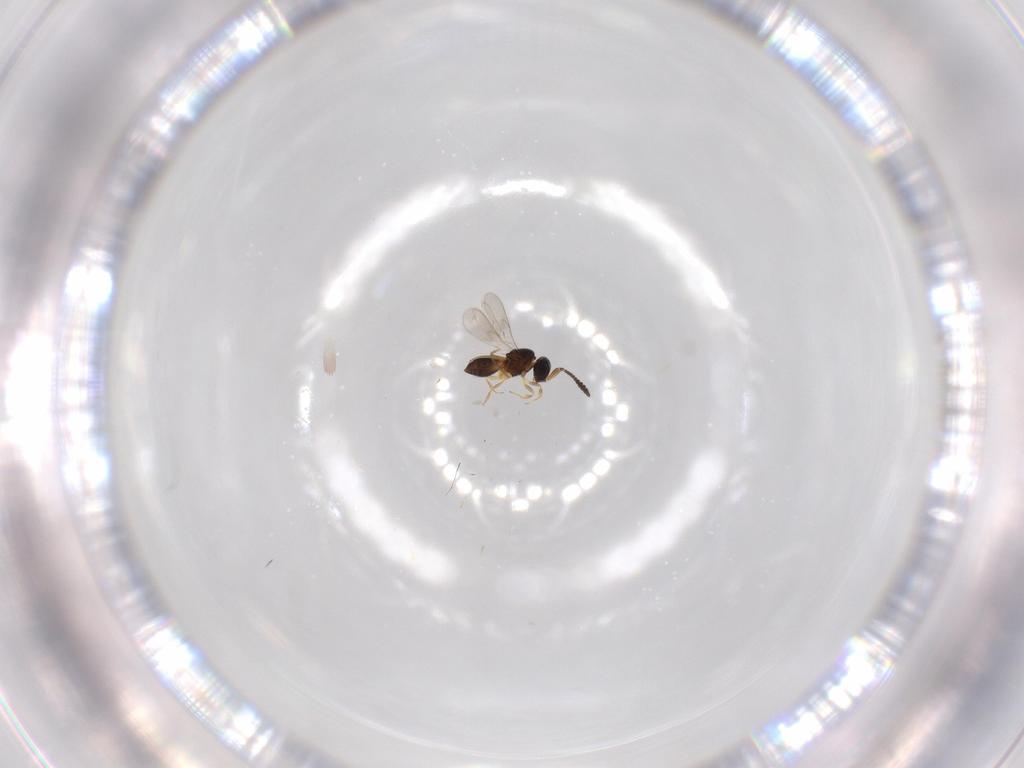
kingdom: Animalia
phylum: Arthropoda
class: Insecta
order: Hymenoptera
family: Scelionidae
